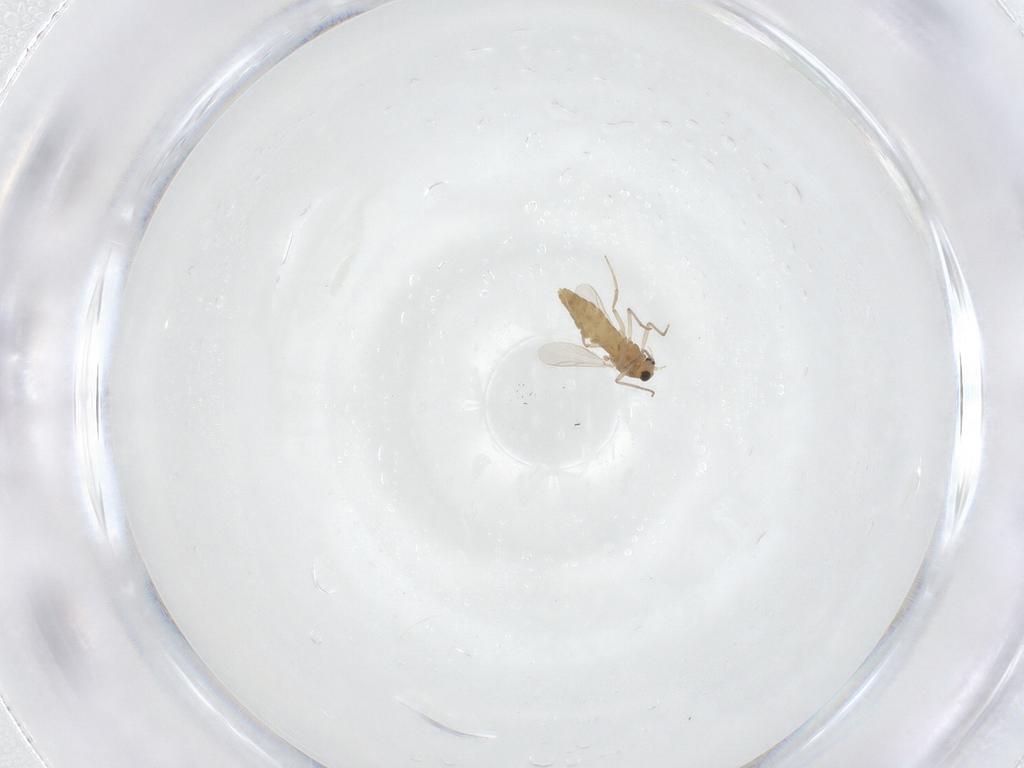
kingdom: Animalia
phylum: Arthropoda
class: Insecta
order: Diptera
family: Chironomidae
